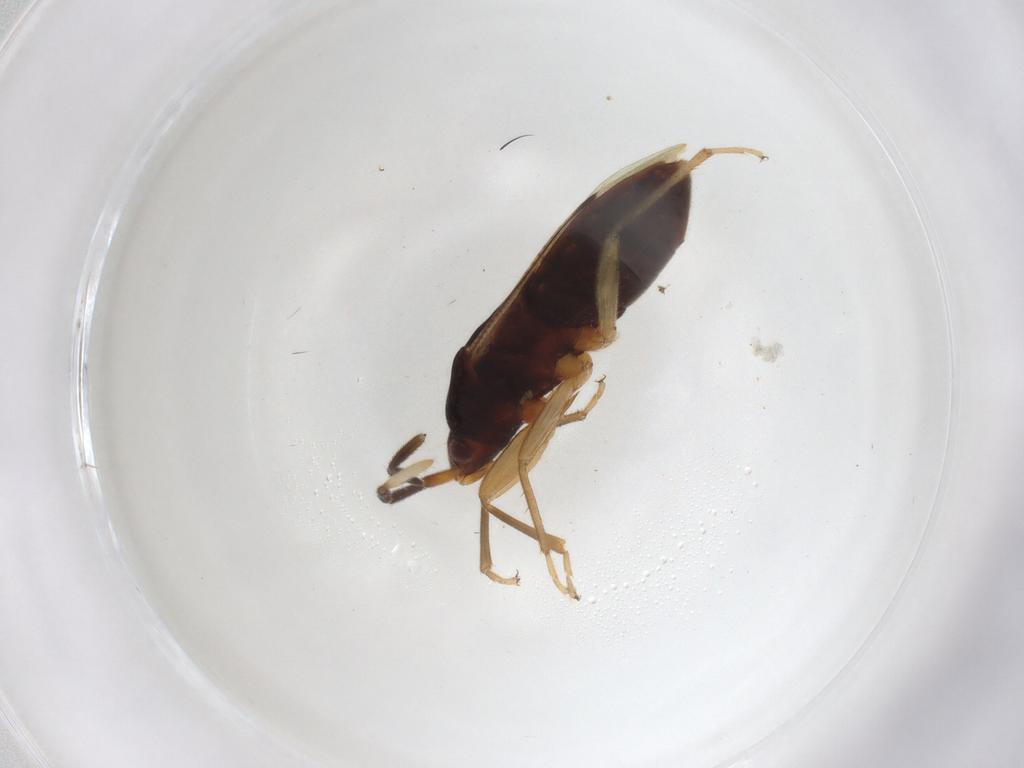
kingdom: Animalia
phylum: Arthropoda
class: Insecta
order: Hemiptera
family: Rhyparochromidae
